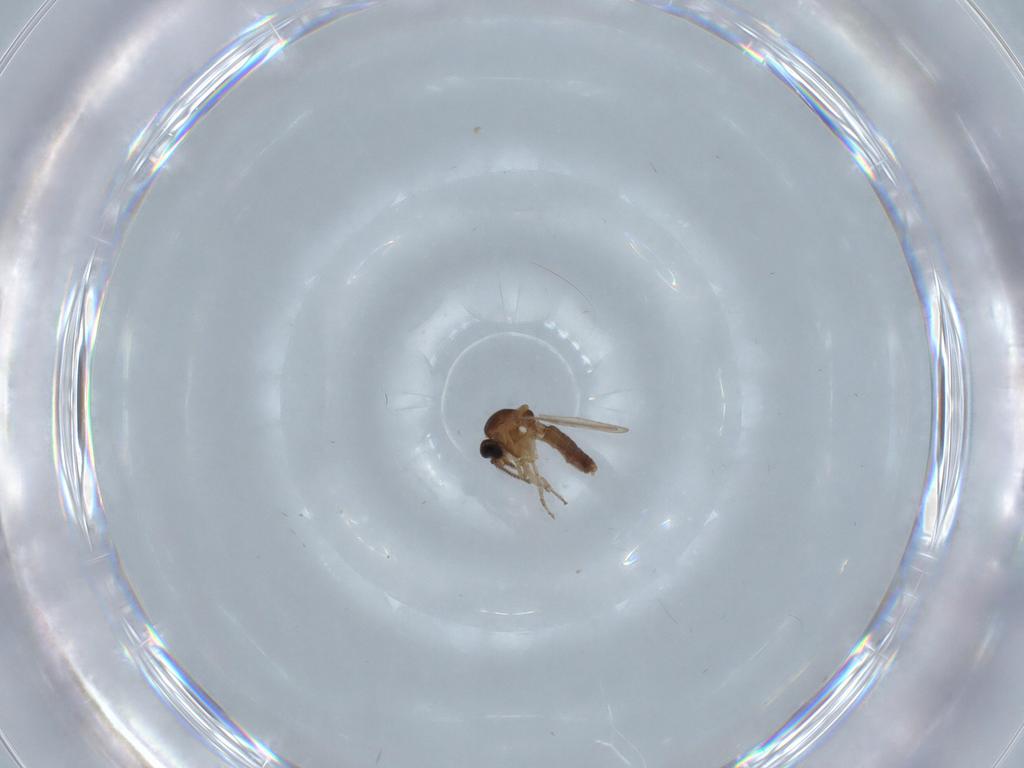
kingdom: Animalia
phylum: Arthropoda
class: Insecta
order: Diptera
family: Ceratopogonidae
